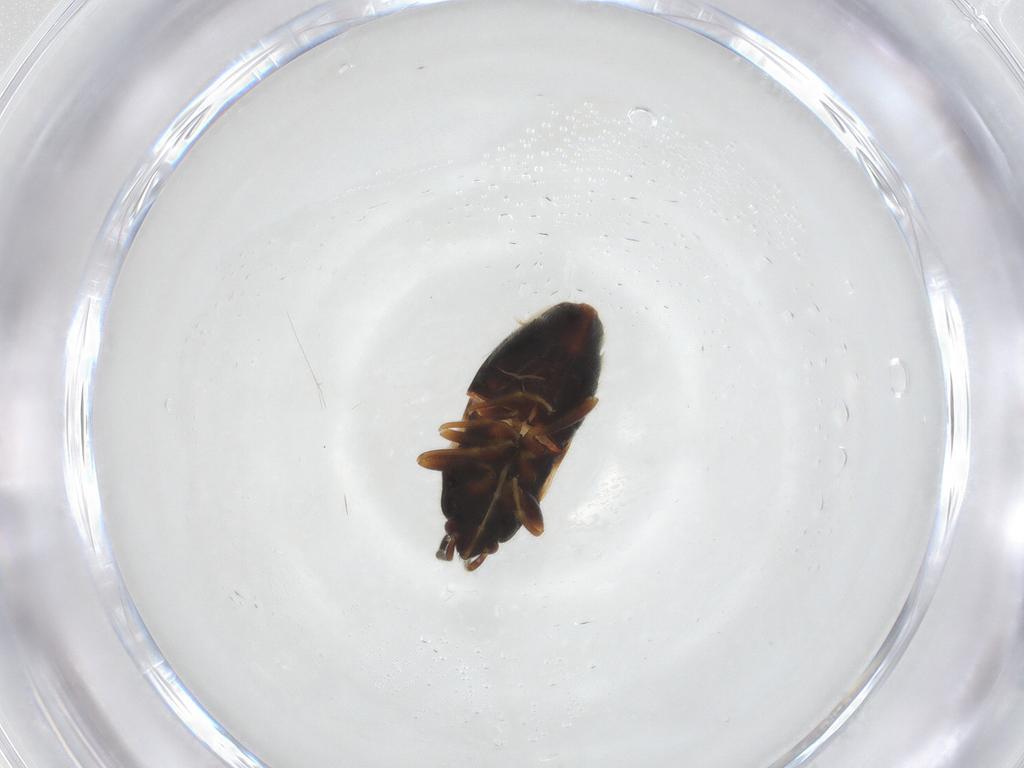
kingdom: Animalia
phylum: Arthropoda
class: Insecta
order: Hemiptera
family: Rhyparochromidae
